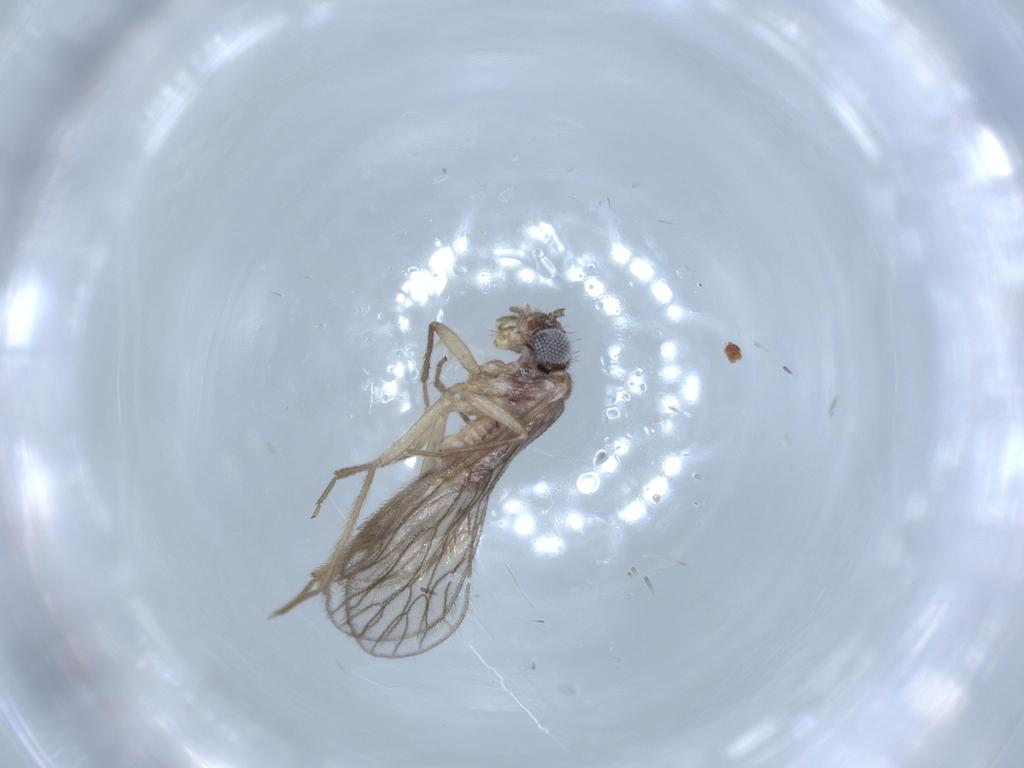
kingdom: Animalia
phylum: Arthropoda
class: Insecta
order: Psocodea
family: Cladiopsocidae
